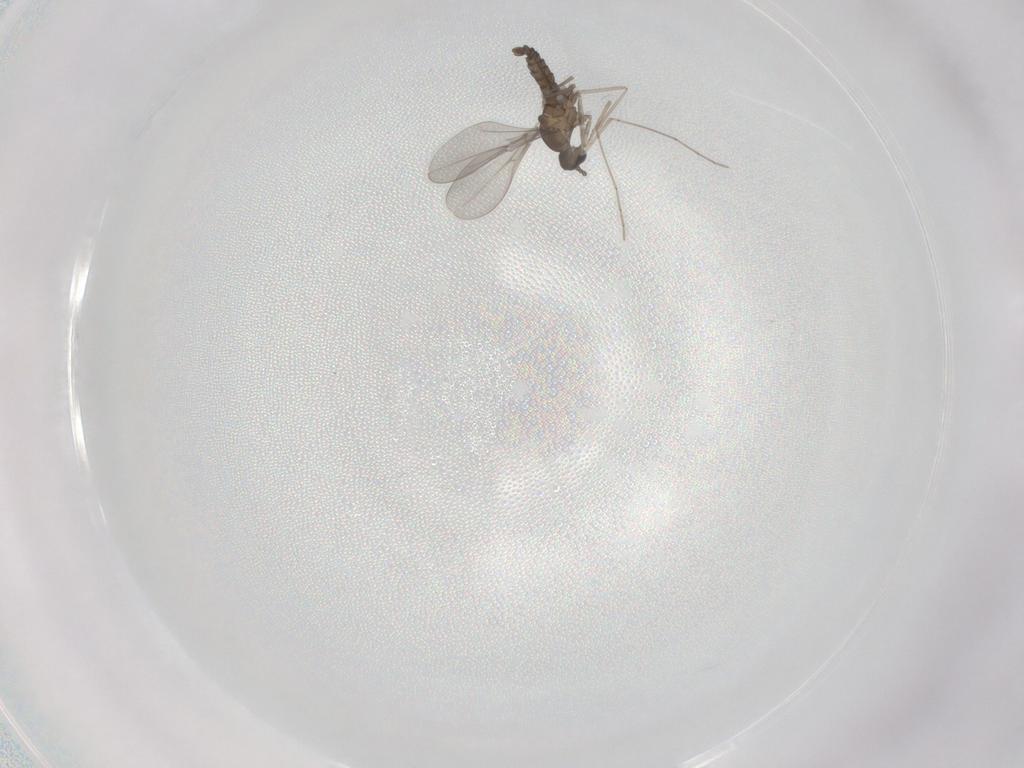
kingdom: Animalia
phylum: Arthropoda
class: Insecta
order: Diptera
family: Cecidomyiidae
